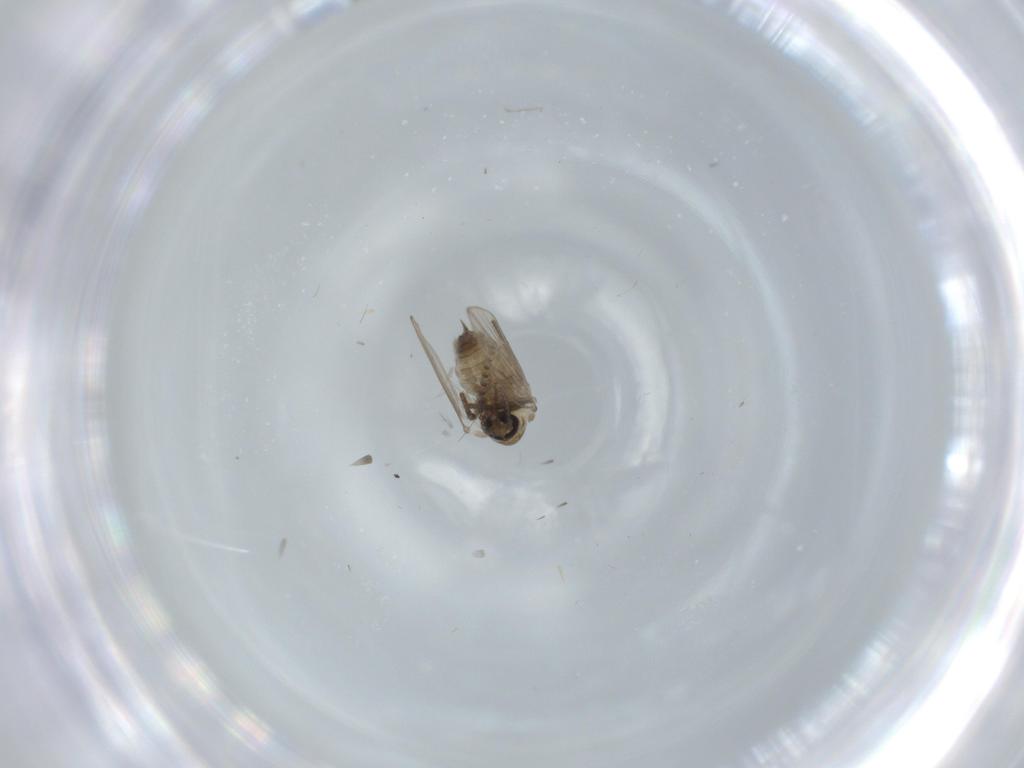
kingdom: Animalia
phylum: Arthropoda
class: Insecta
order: Diptera
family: Psychodidae
